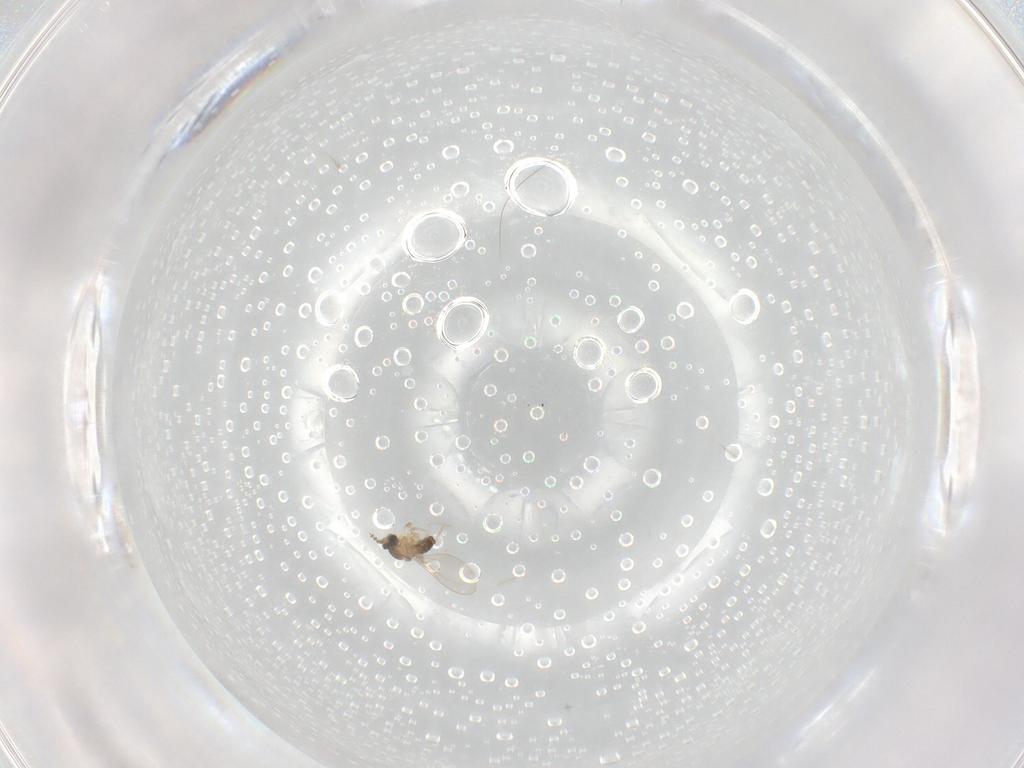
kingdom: Animalia
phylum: Arthropoda
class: Insecta
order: Diptera
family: Cecidomyiidae
